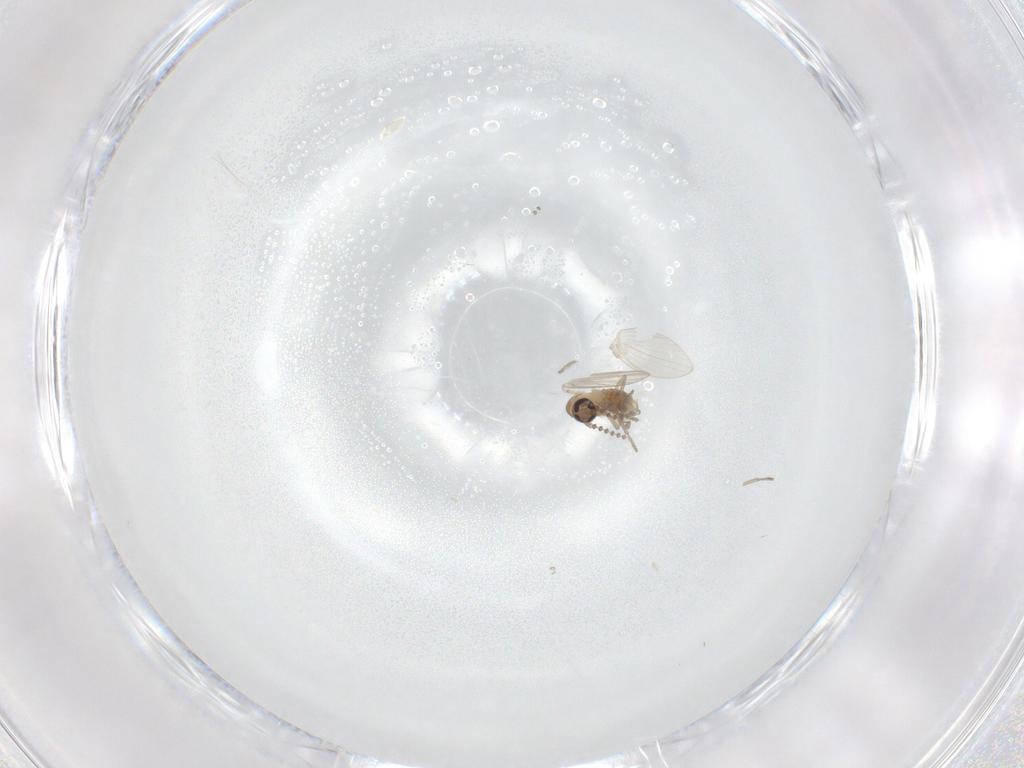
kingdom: Animalia
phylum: Arthropoda
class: Insecta
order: Diptera
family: Psychodidae
